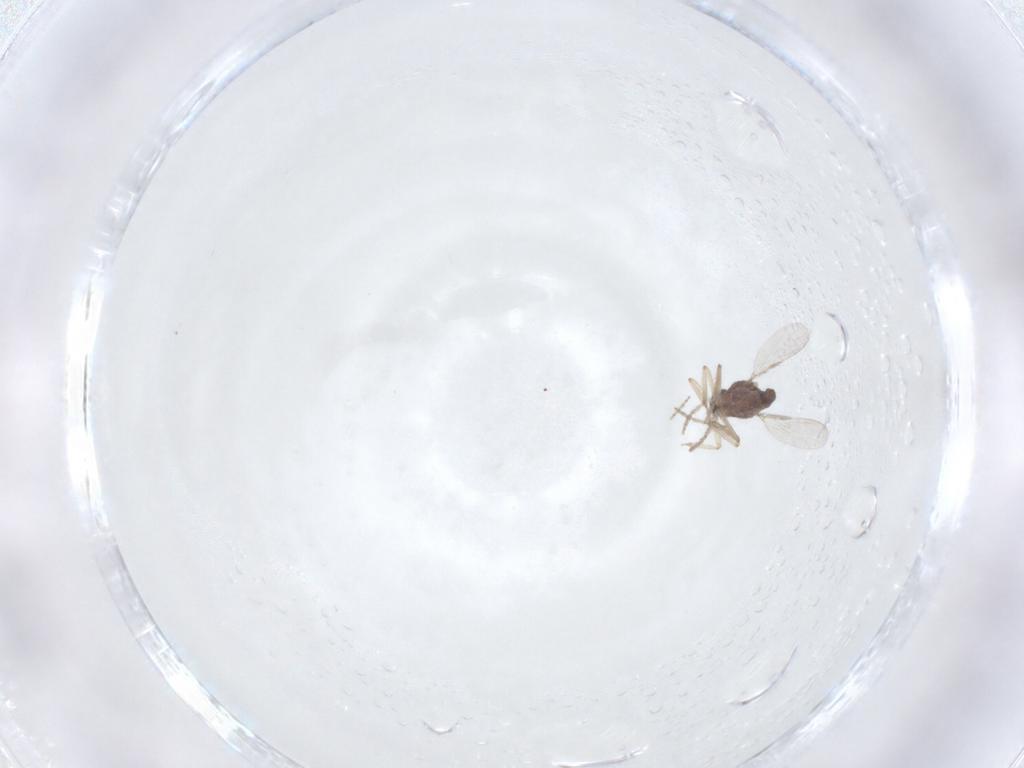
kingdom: Animalia
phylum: Arthropoda
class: Insecta
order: Diptera
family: Ceratopogonidae
